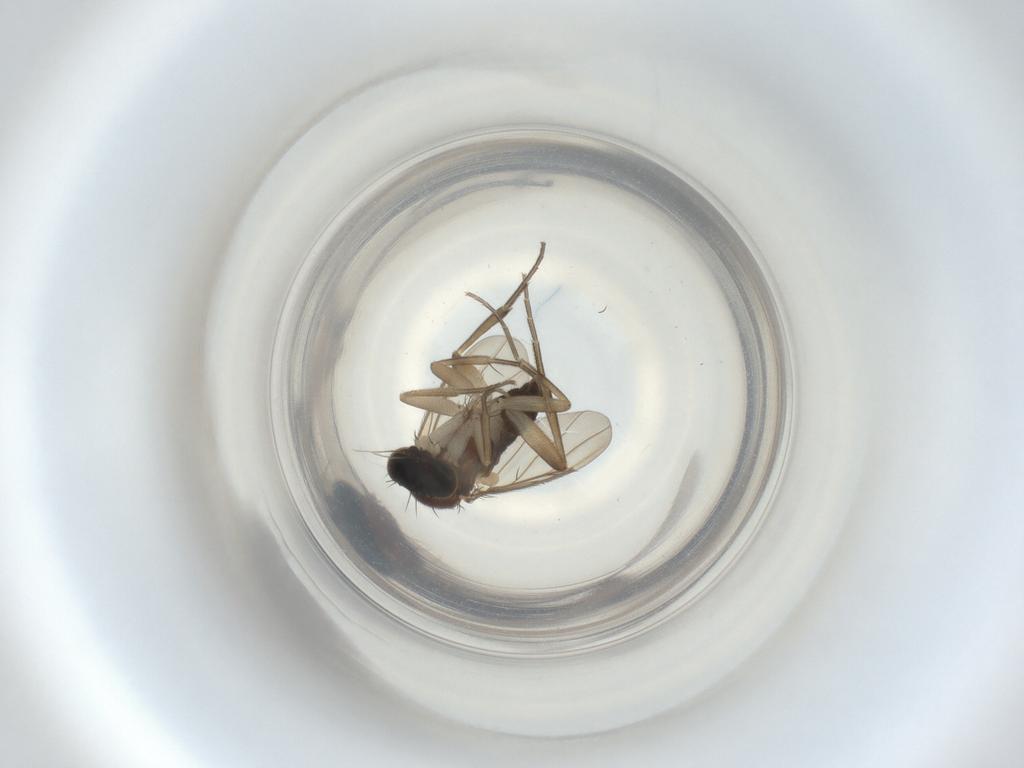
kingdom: Animalia
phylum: Arthropoda
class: Insecta
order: Diptera
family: Phoridae
